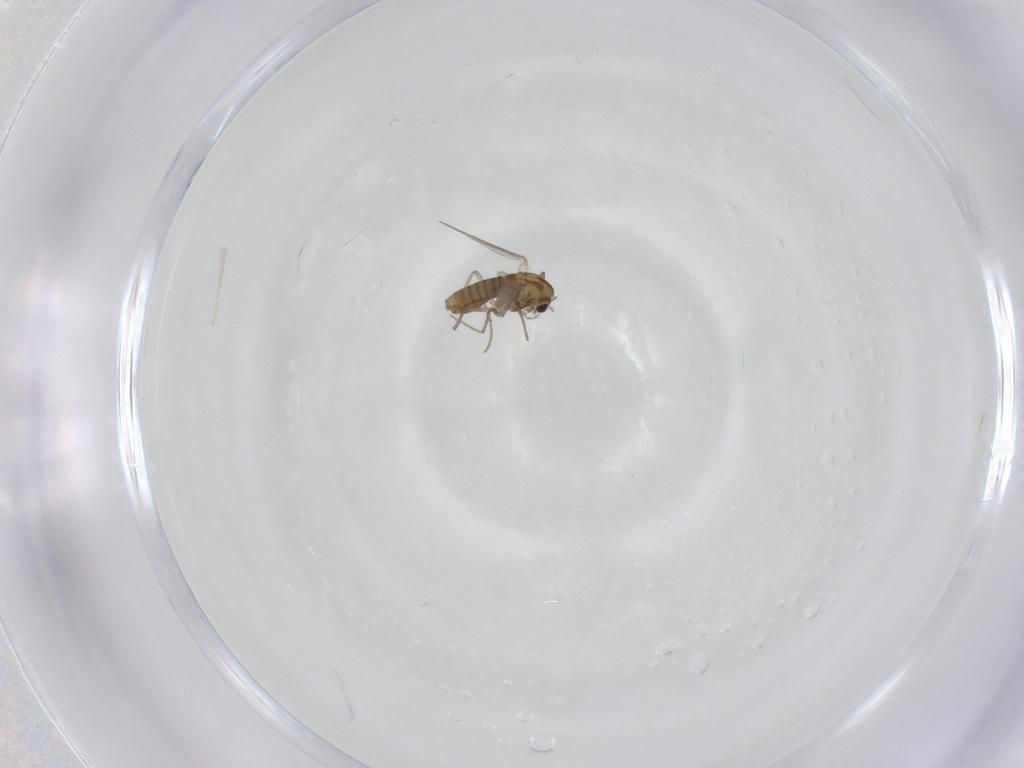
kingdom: Animalia
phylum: Arthropoda
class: Insecta
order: Diptera
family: Chironomidae
